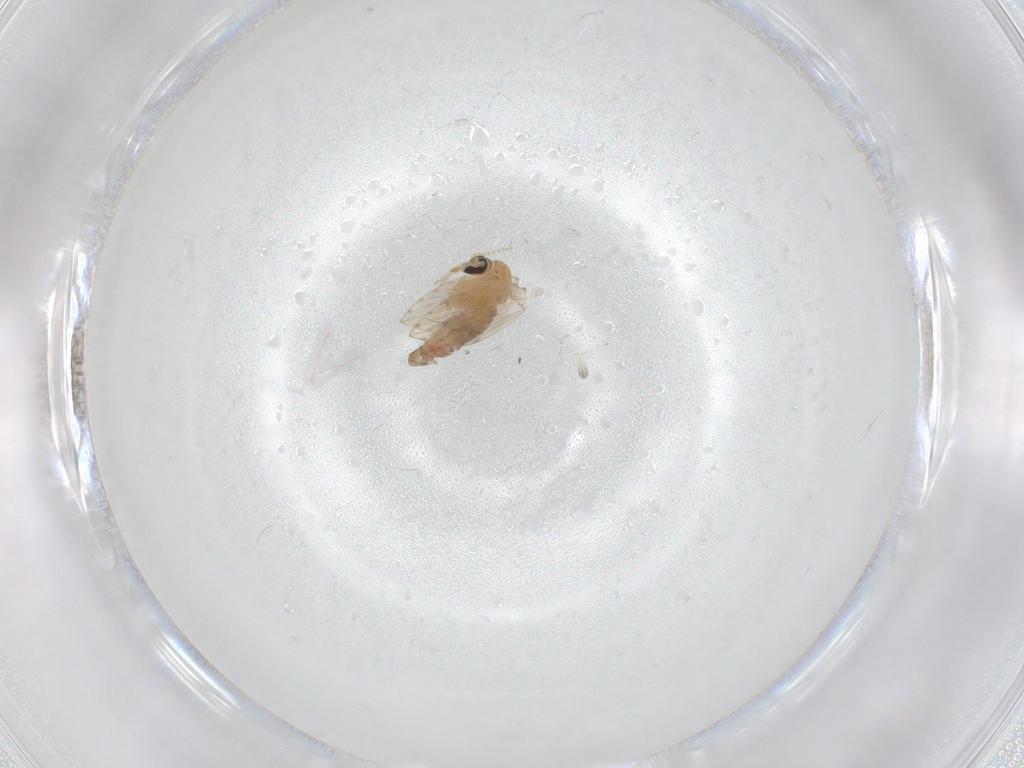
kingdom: Animalia
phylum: Arthropoda
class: Insecta
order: Diptera
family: Psychodidae
